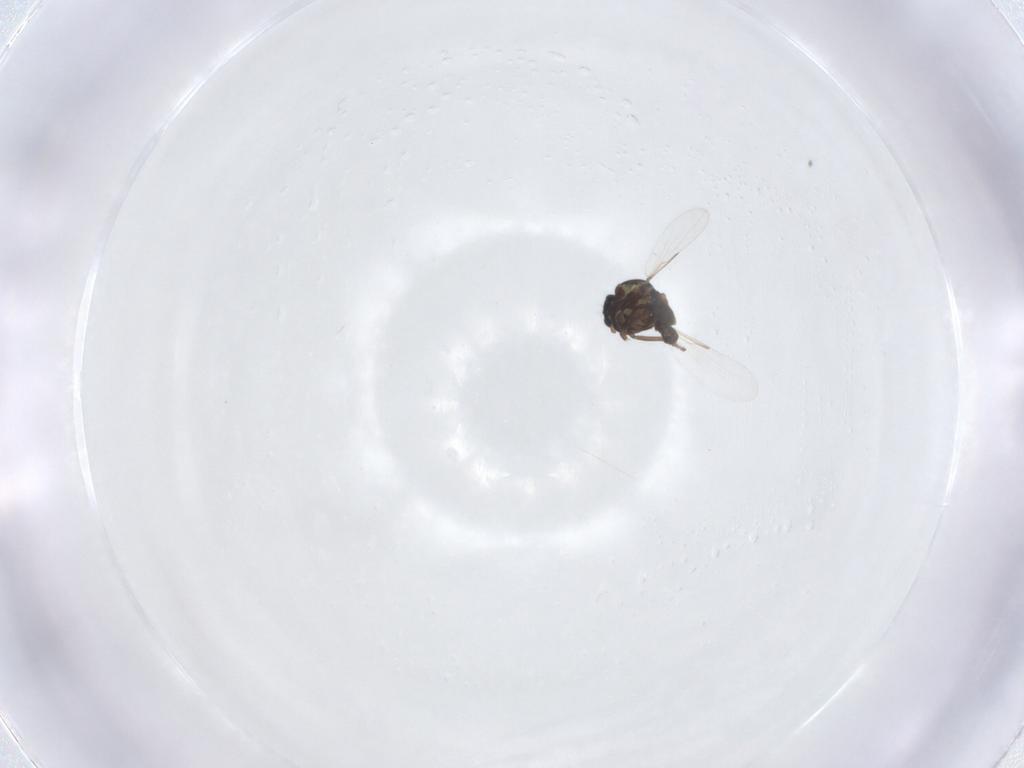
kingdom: Animalia
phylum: Arthropoda
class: Insecta
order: Diptera
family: Ceratopogonidae
